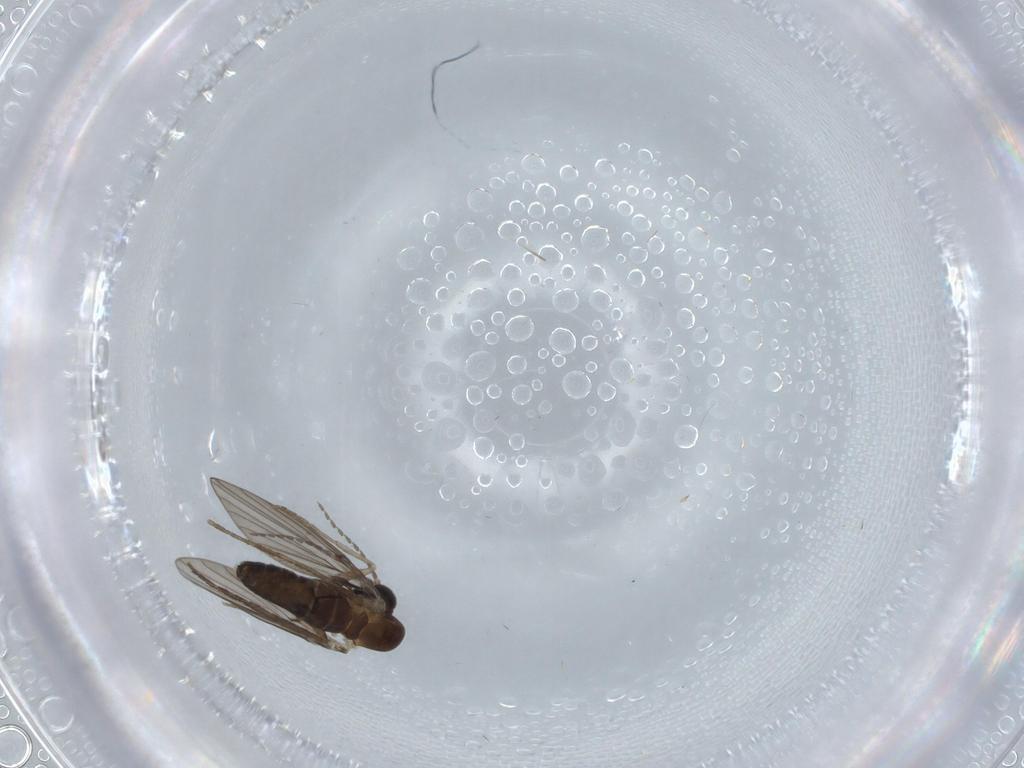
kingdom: Animalia
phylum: Arthropoda
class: Insecta
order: Diptera
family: Psychodidae
